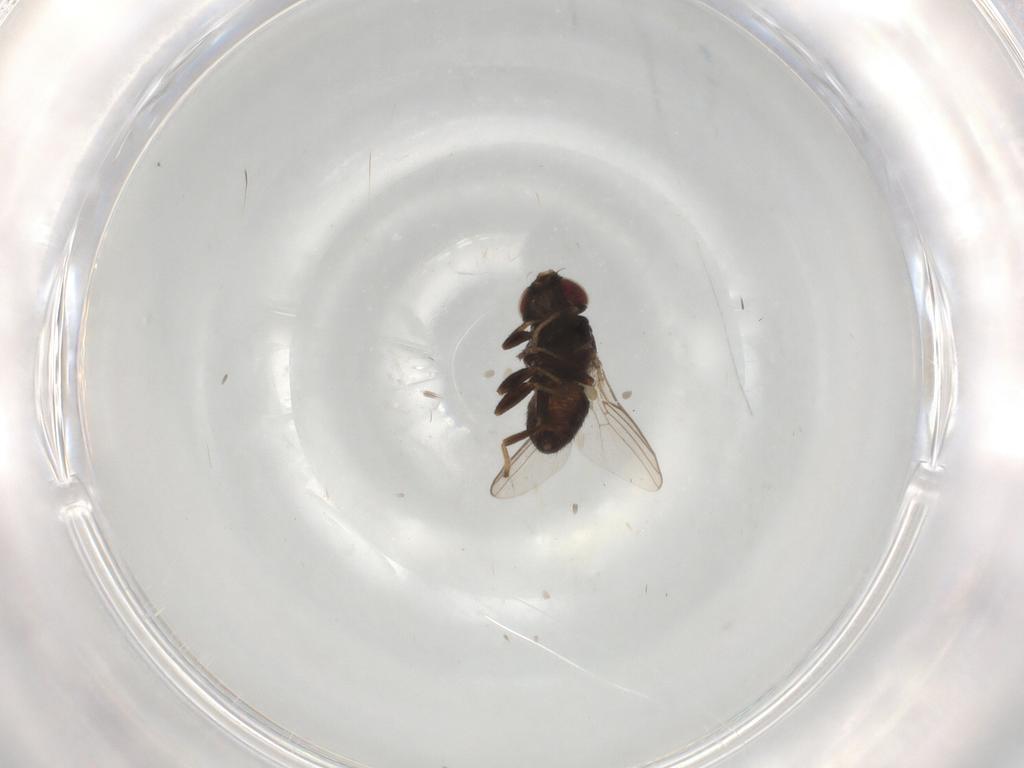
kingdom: Animalia
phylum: Arthropoda
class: Insecta
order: Diptera
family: Chloropidae
